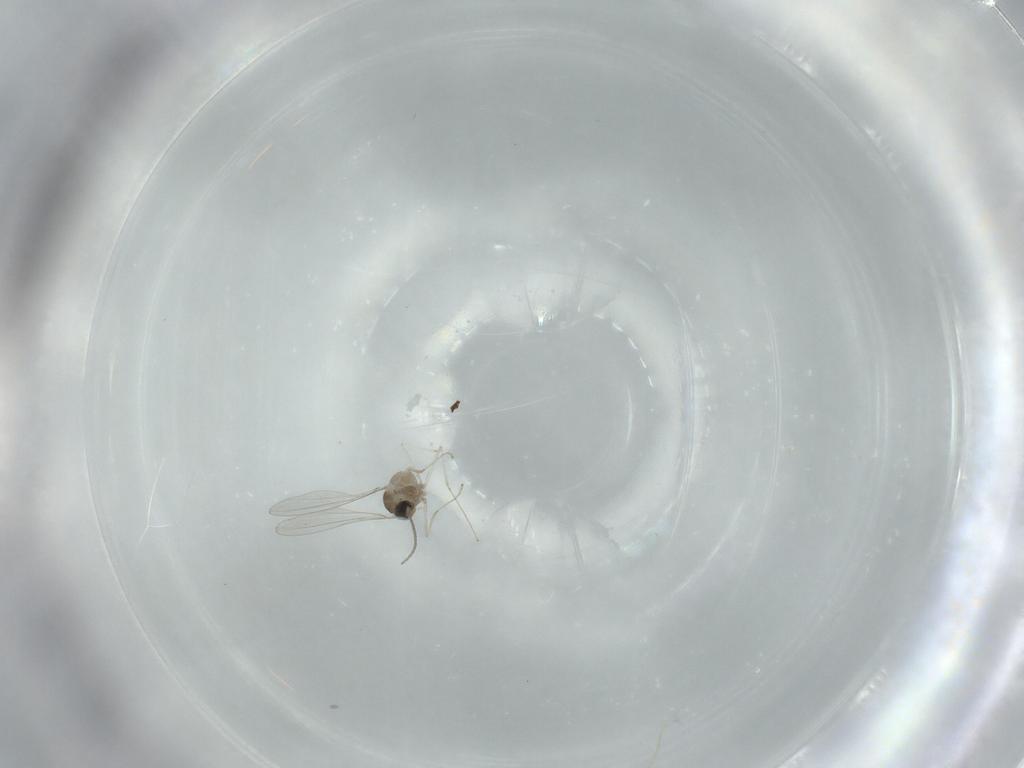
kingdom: Animalia
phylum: Arthropoda
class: Insecta
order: Diptera
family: Cecidomyiidae
